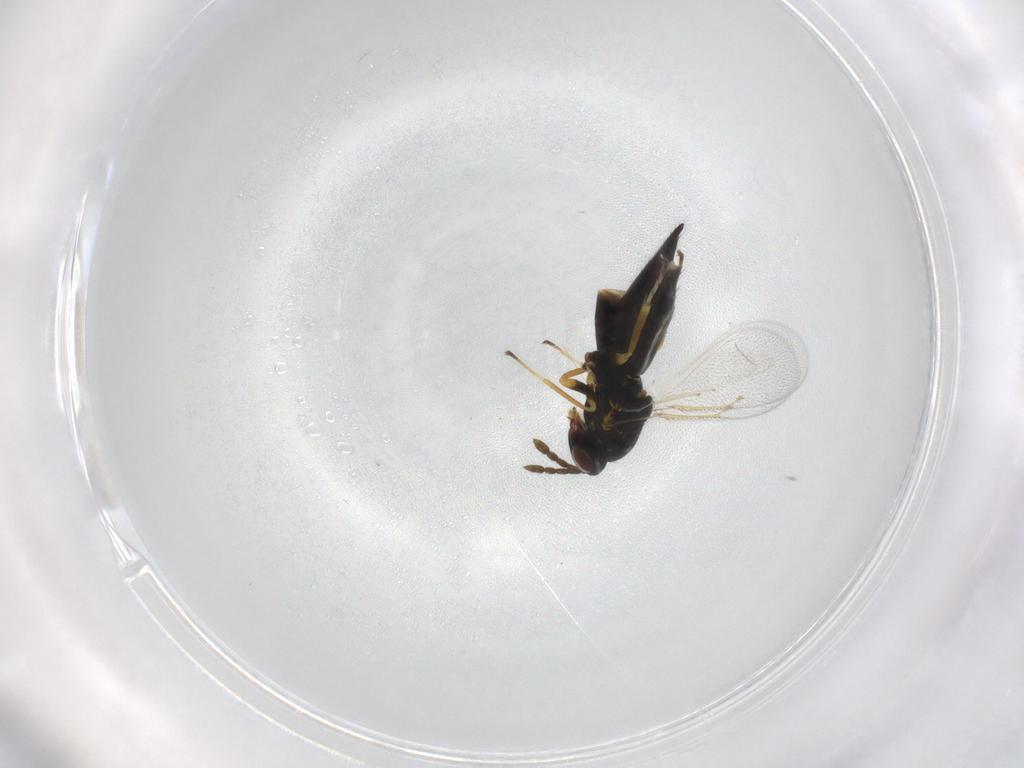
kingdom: Animalia
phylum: Arthropoda
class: Insecta
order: Hymenoptera
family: Eulophidae
